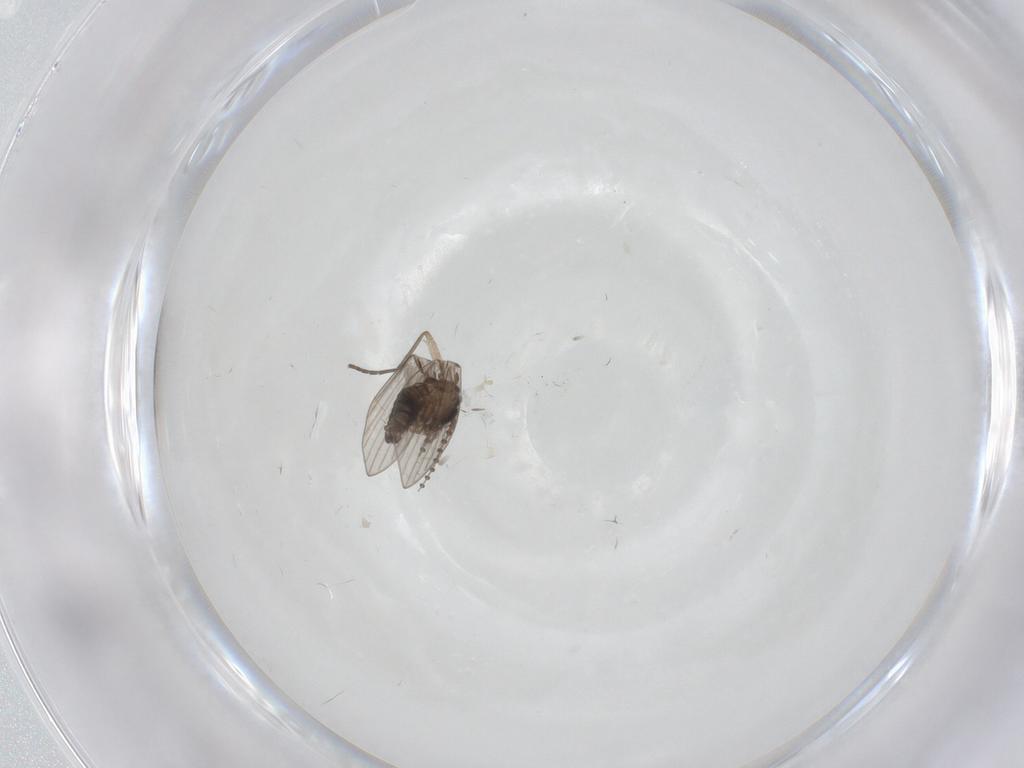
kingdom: Animalia
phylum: Arthropoda
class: Insecta
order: Diptera
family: Psychodidae
